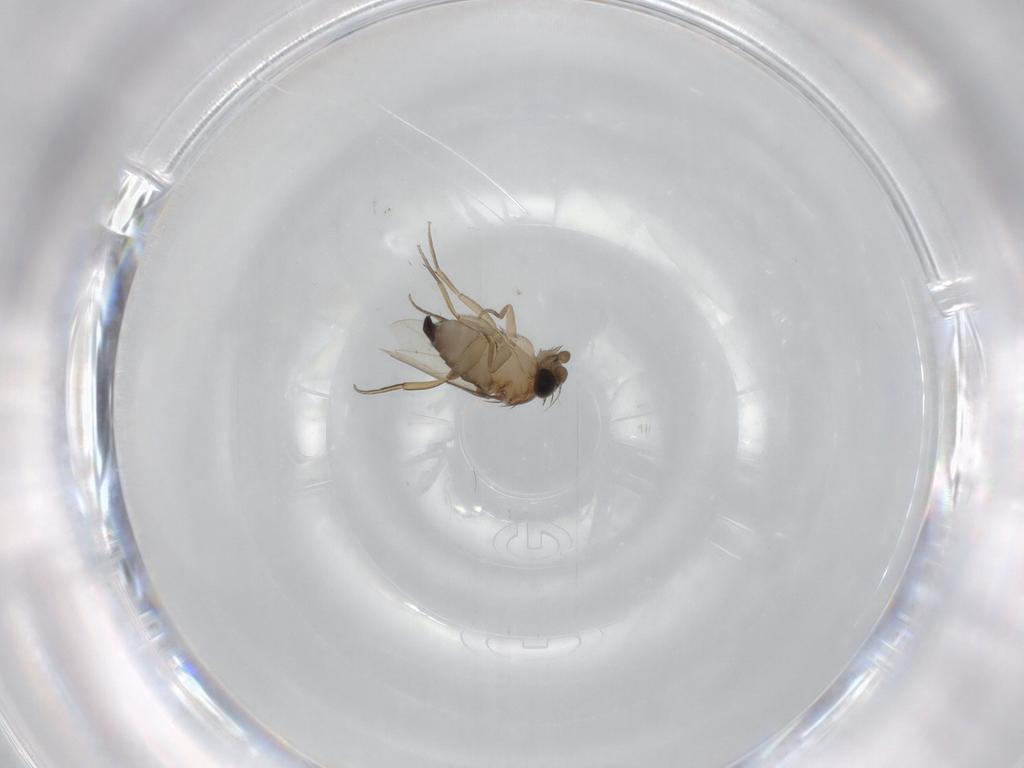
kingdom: Animalia
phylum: Arthropoda
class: Insecta
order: Diptera
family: Phoridae
